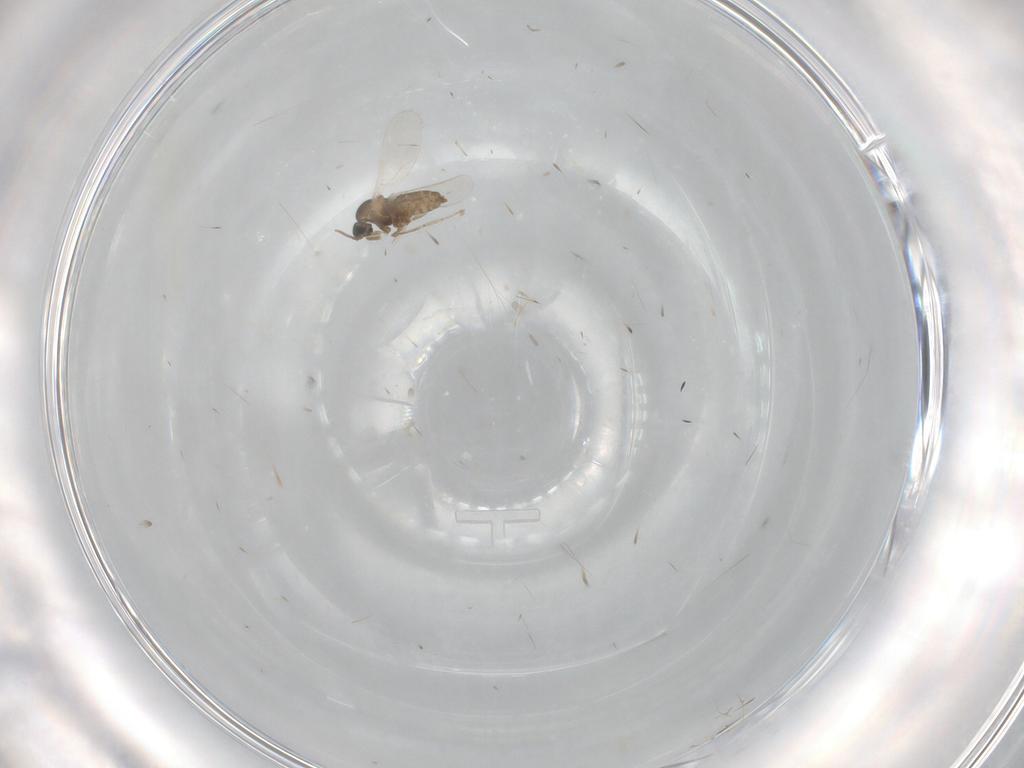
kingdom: Animalia
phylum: Arthropoda
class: Insecta
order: Diptera
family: Cecidomyiidae
